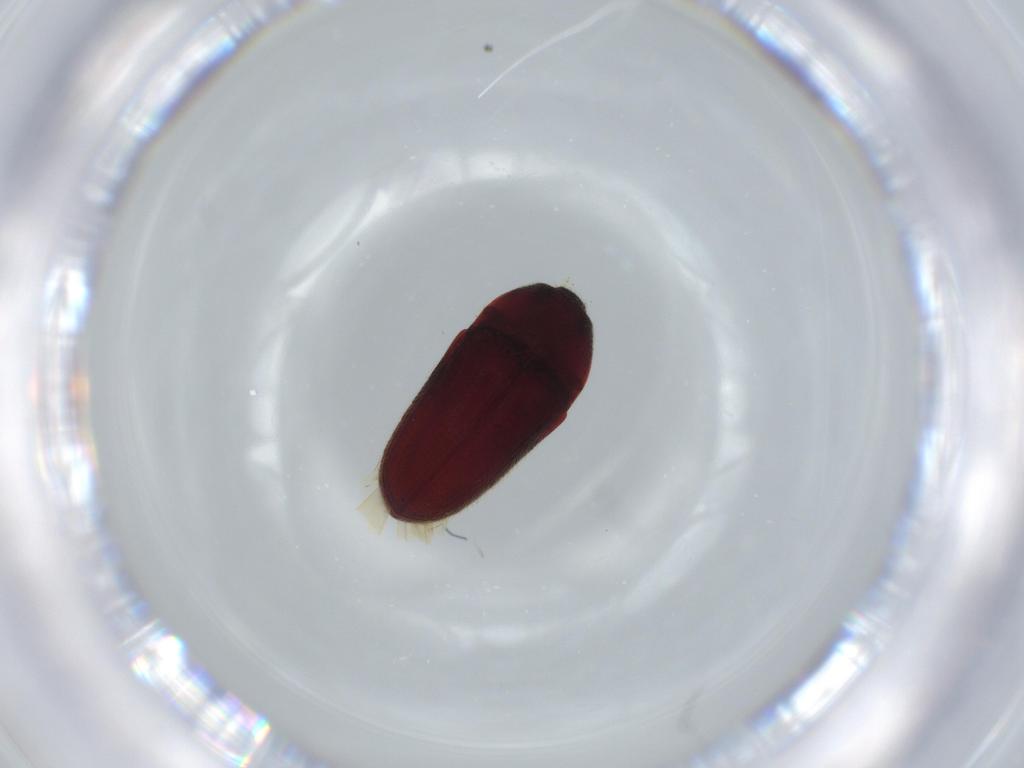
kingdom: Animalia
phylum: Arthropoda
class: Insecta
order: Coleoptera
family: Throscidae
